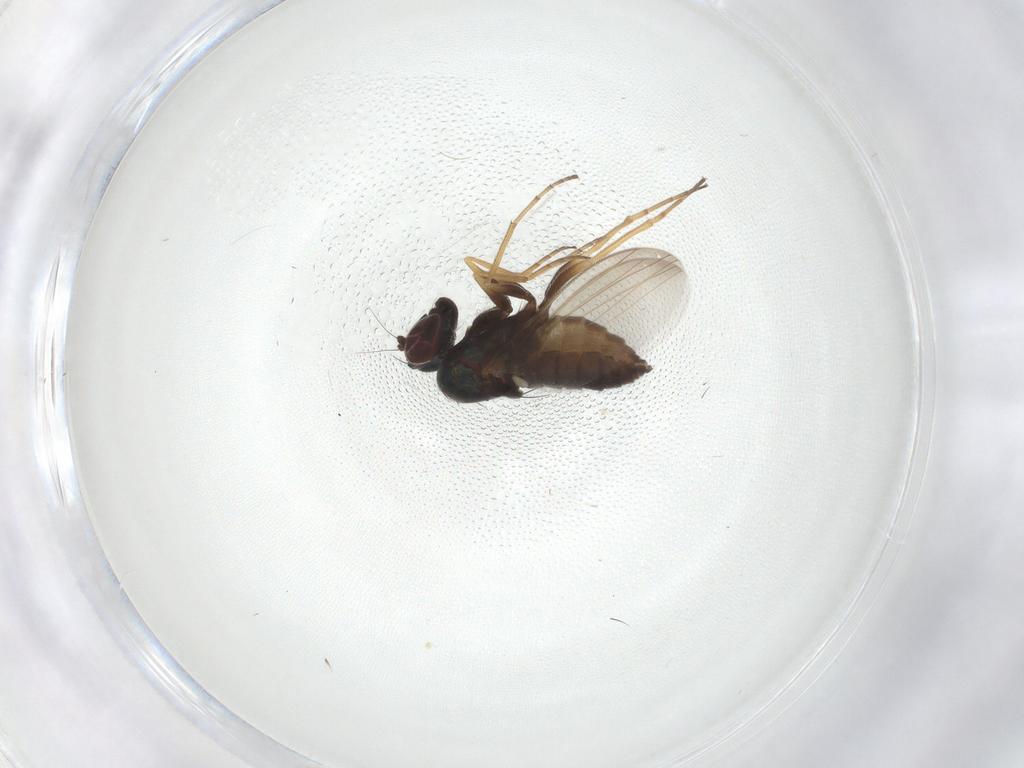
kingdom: Animalia
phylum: Arthropoda
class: Insecta
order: Diptera
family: Dolichopodidae
